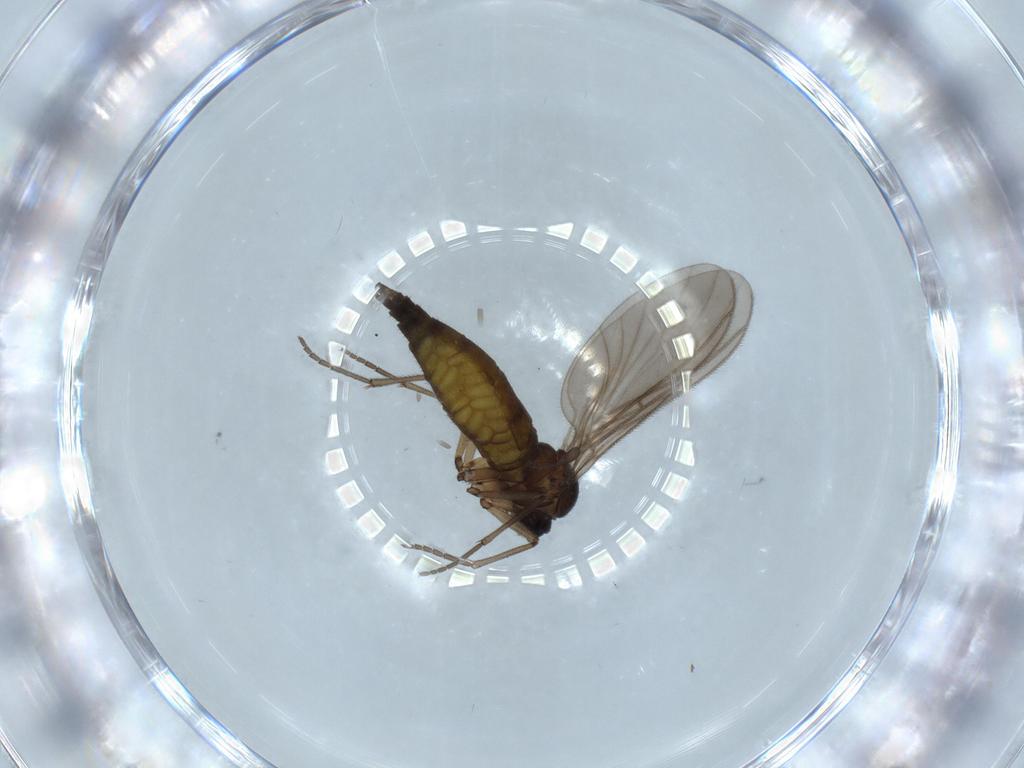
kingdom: Animalia
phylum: Arthropoda
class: Insecta
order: Diptera
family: Sciaridae
